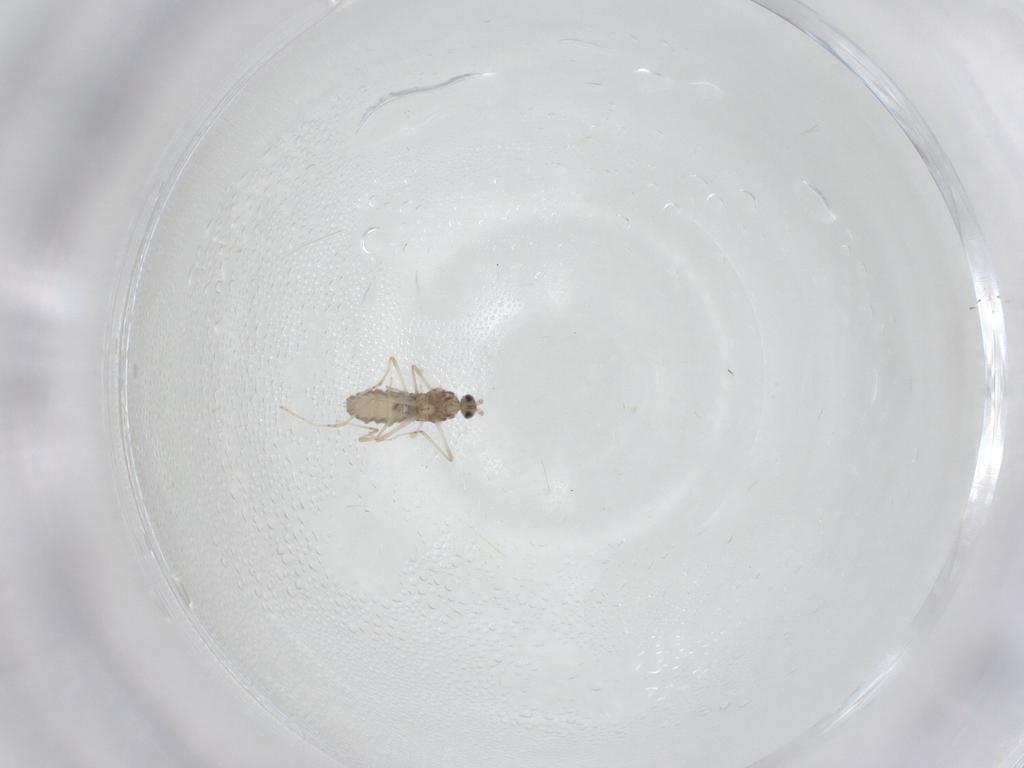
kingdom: Animalia
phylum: Arthropoda
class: Insecta
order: Diptera
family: Cecidomyiidae
